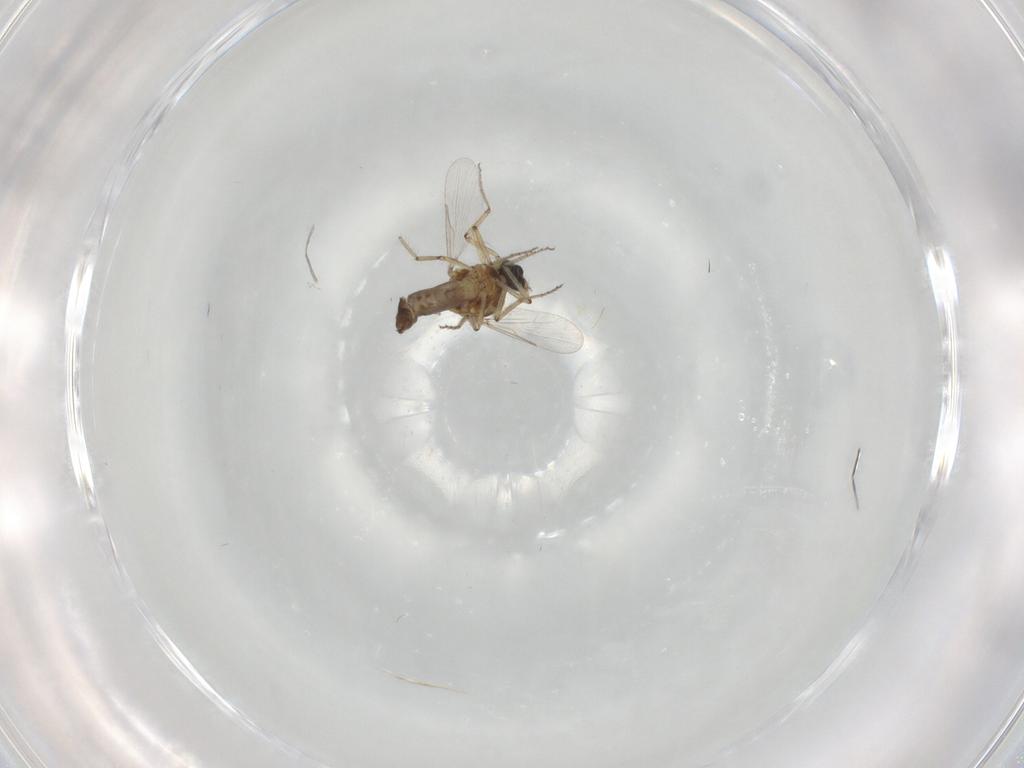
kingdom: Animalia
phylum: Arthropoda
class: Insecta
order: Diptera
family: Ceratopogonidae
